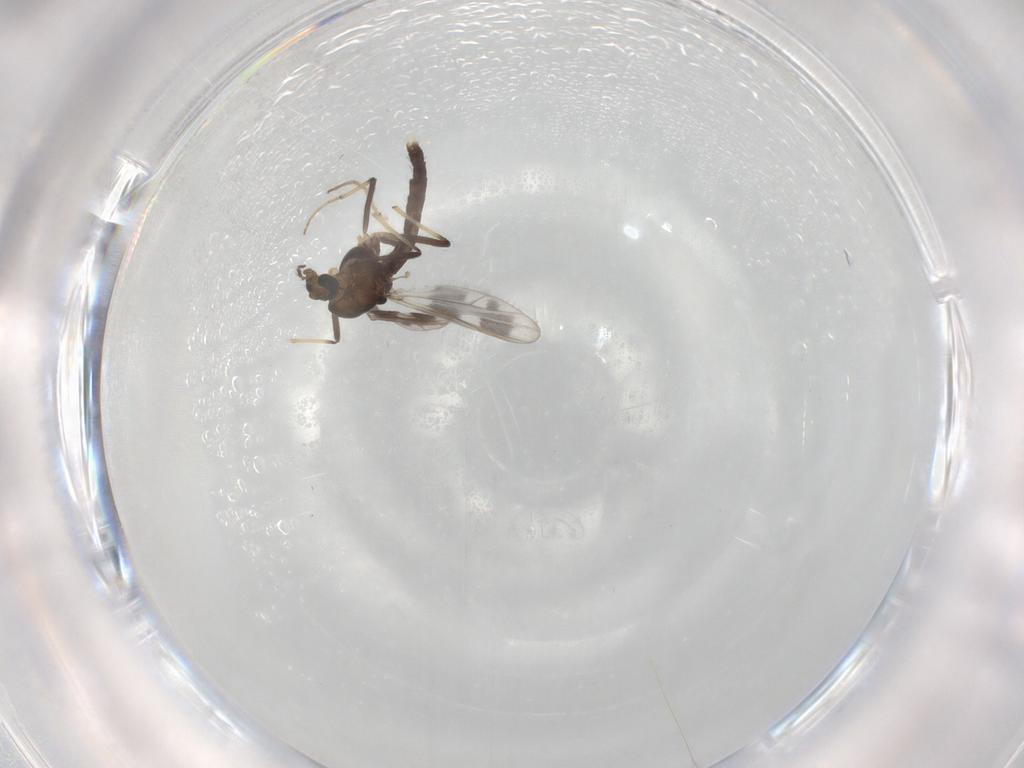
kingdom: Animalia
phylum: Arthropoda
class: Insecta
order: Diptera
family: Chironomidae
